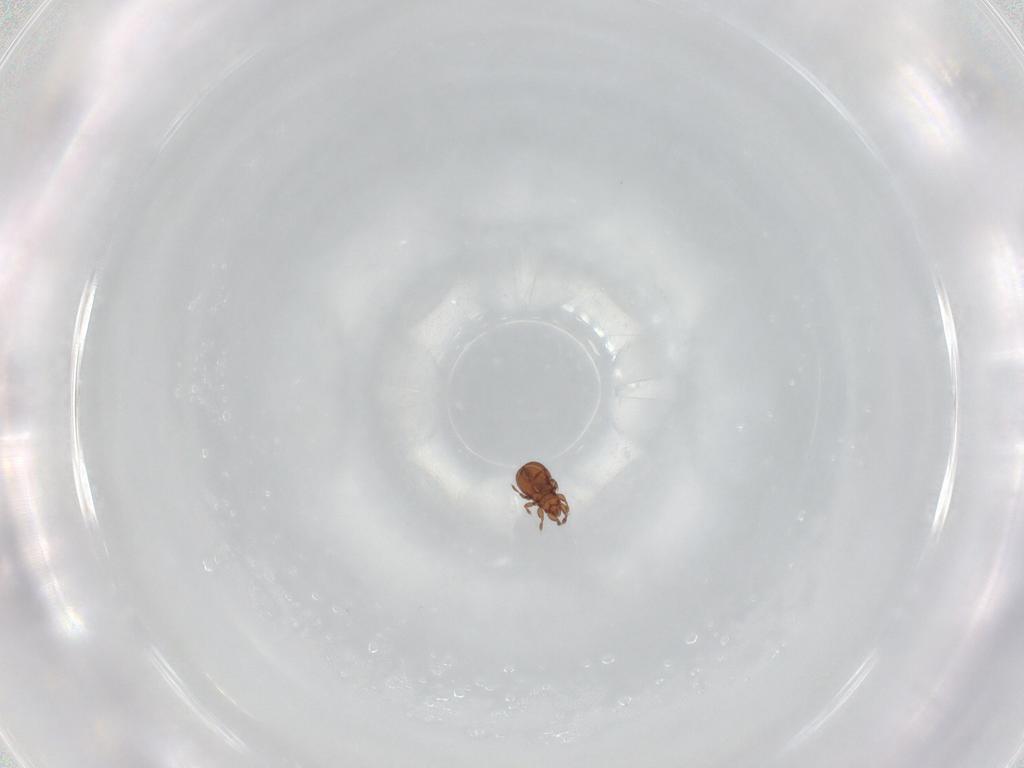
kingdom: Animalia
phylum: Arthropoda
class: Arachnida
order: Sarcoptiformes
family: Eremaeidae
